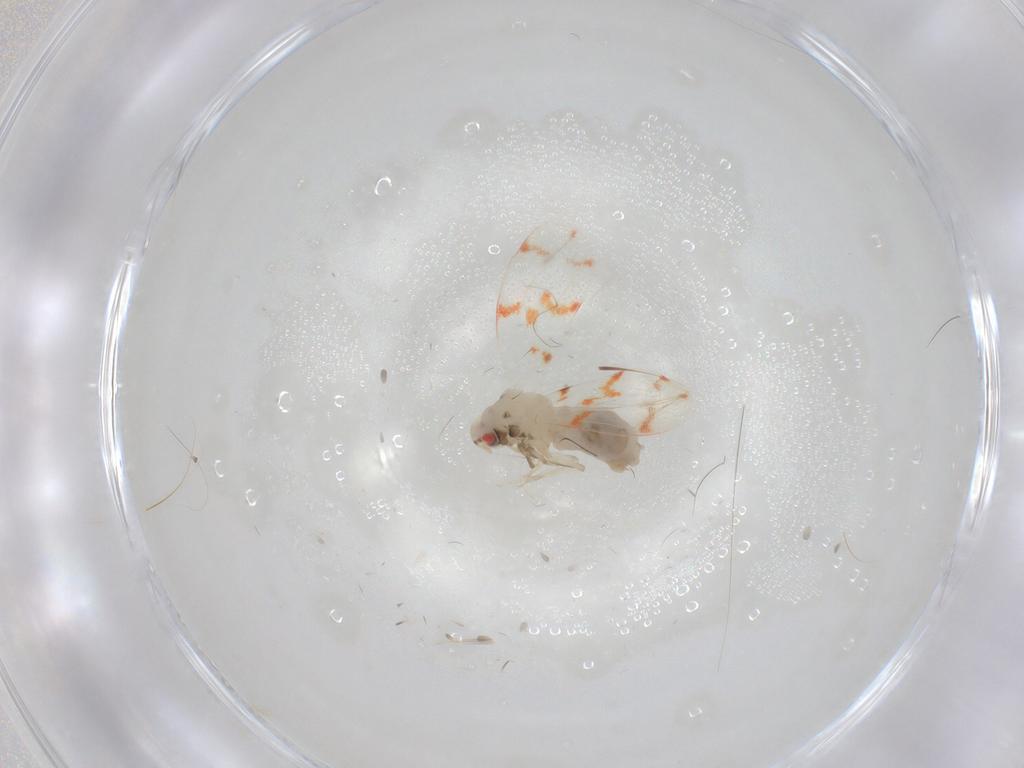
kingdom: Animalia
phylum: Arthropoda
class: Insecta
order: Hemiptera
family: Aleyrodidae
